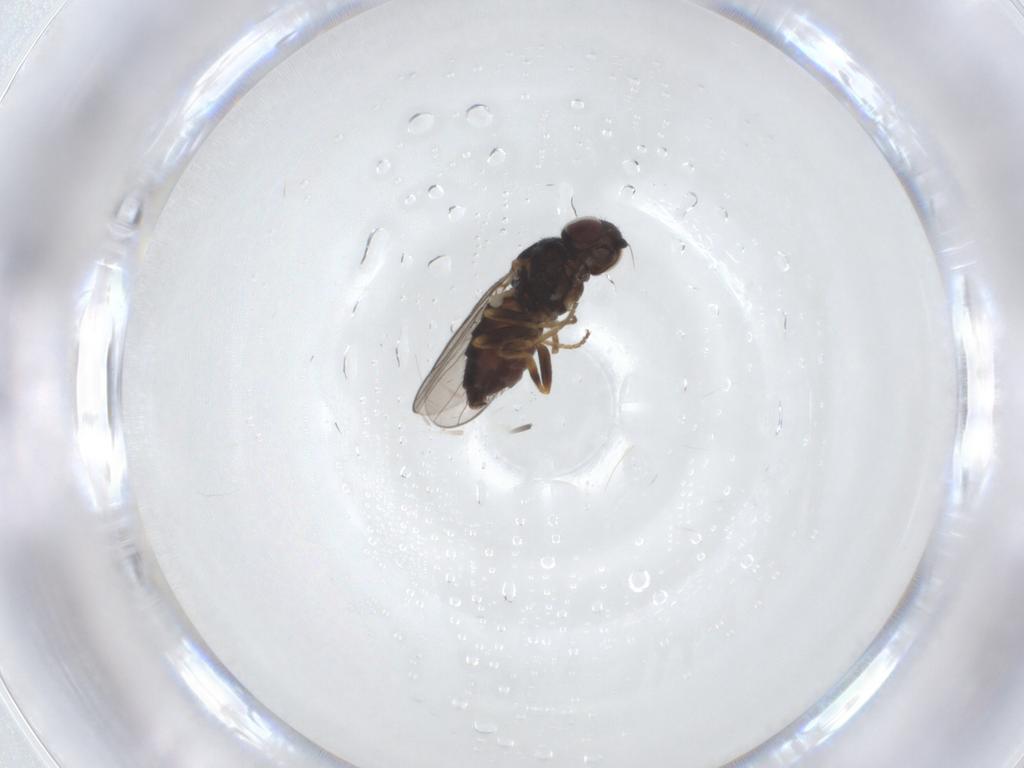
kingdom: Animalia
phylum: Arthropoda
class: Insecta
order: Diptera
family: Chloropidae
